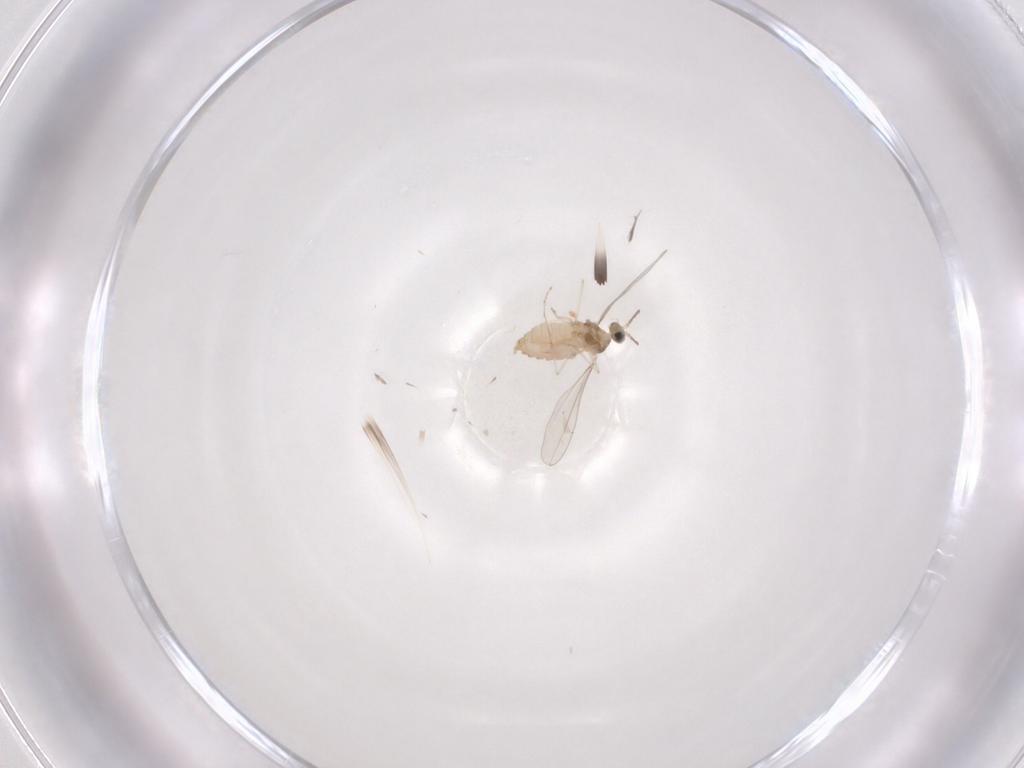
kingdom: Animalia
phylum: Arthropoda
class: Insecta
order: Diptera
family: Cecidomyiidae
